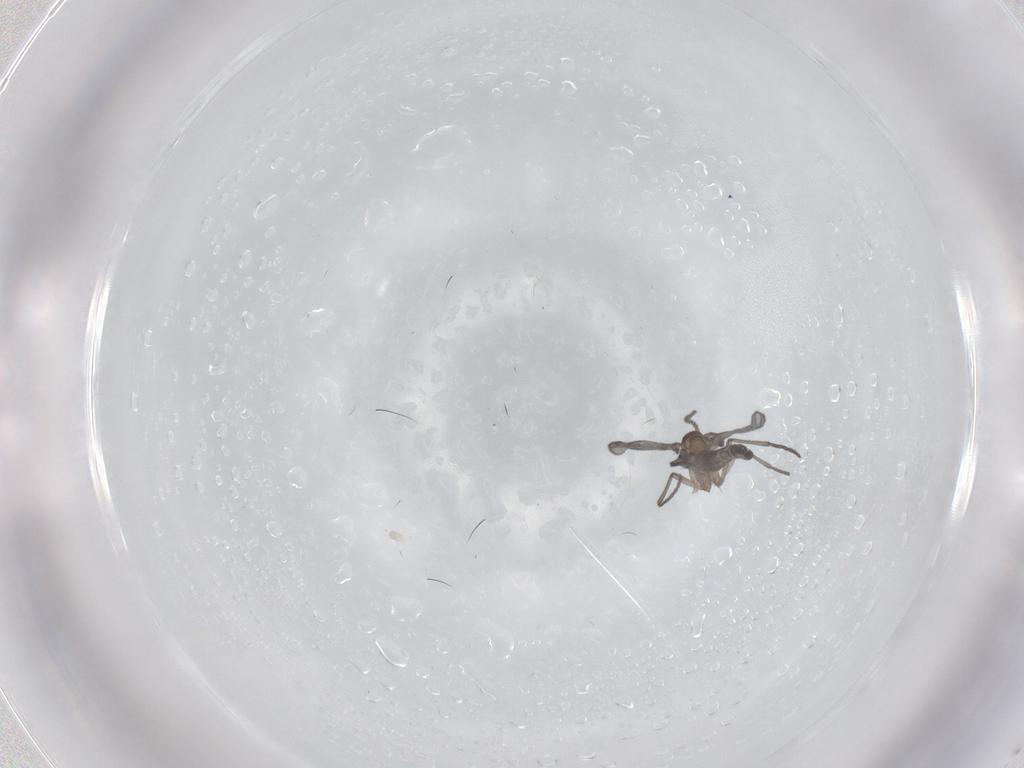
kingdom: Animalia
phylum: Arthropoda
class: Insecta
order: Diptera
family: Sciaridae
